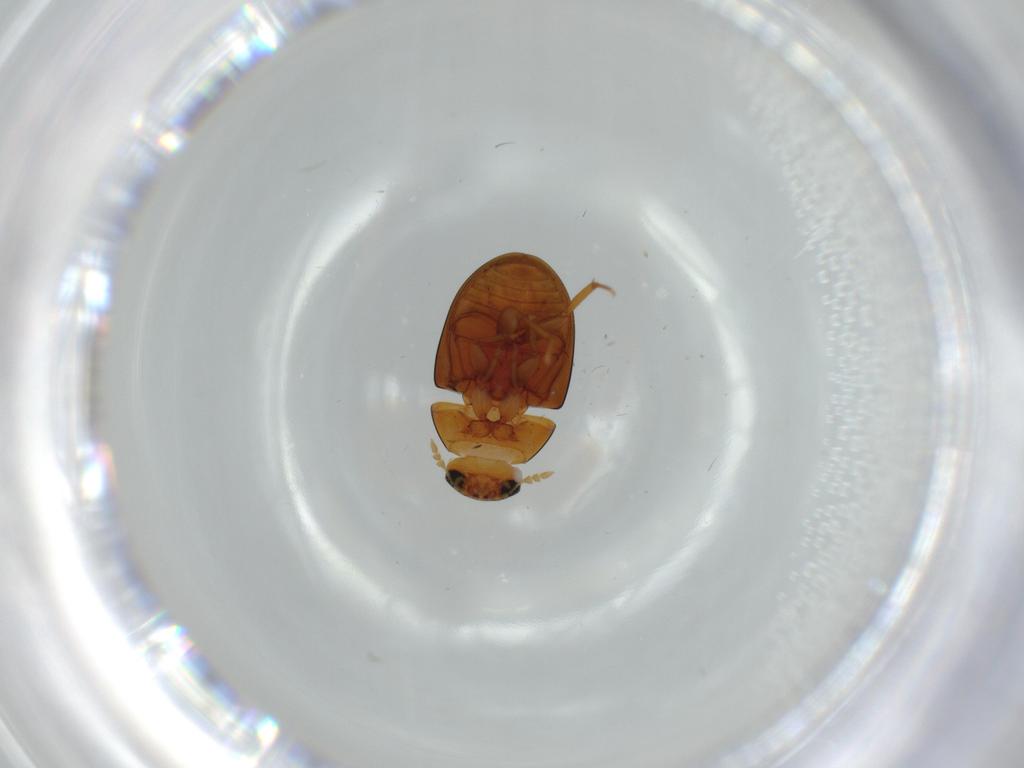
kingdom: Animalia
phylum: Arthropoda
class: Insecta
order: Coleoptera
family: Phalacridae
